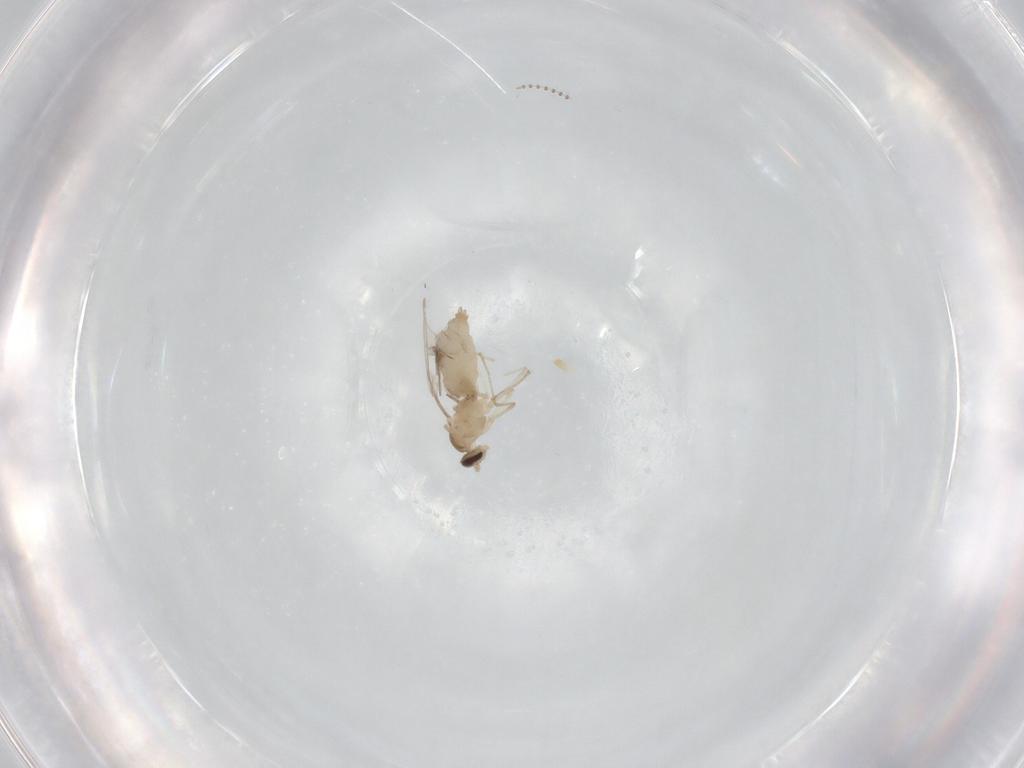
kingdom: Animalia
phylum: Arthropoda
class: Insecta
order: Diptera
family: Cecidomyiidae
